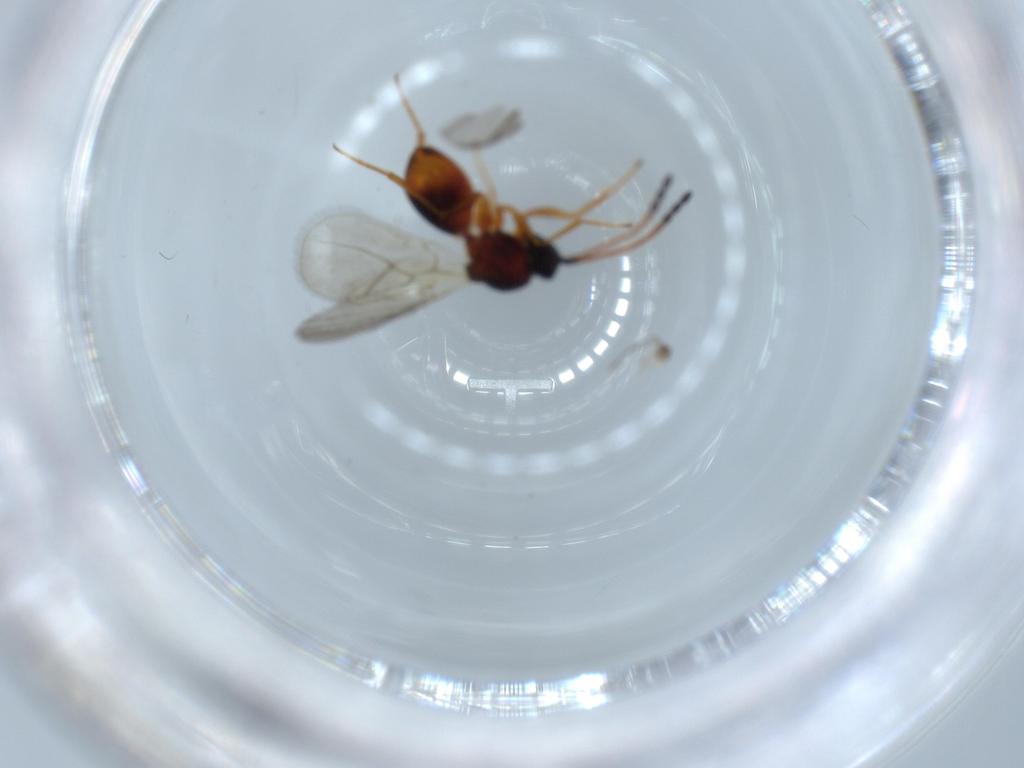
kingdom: Animalia
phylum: Arthropoda
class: Insecta
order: Hymenoptera
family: Figitidae
